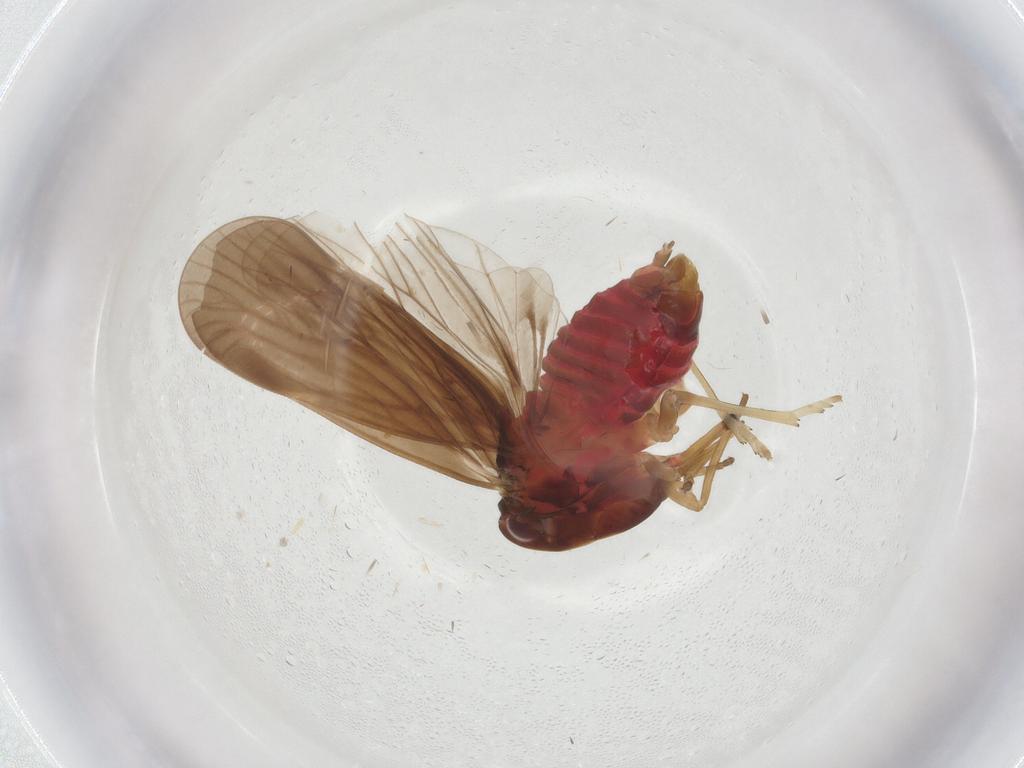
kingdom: Animalia
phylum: Arthropoda
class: Insecta
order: Hemiptera
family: Derbidae
